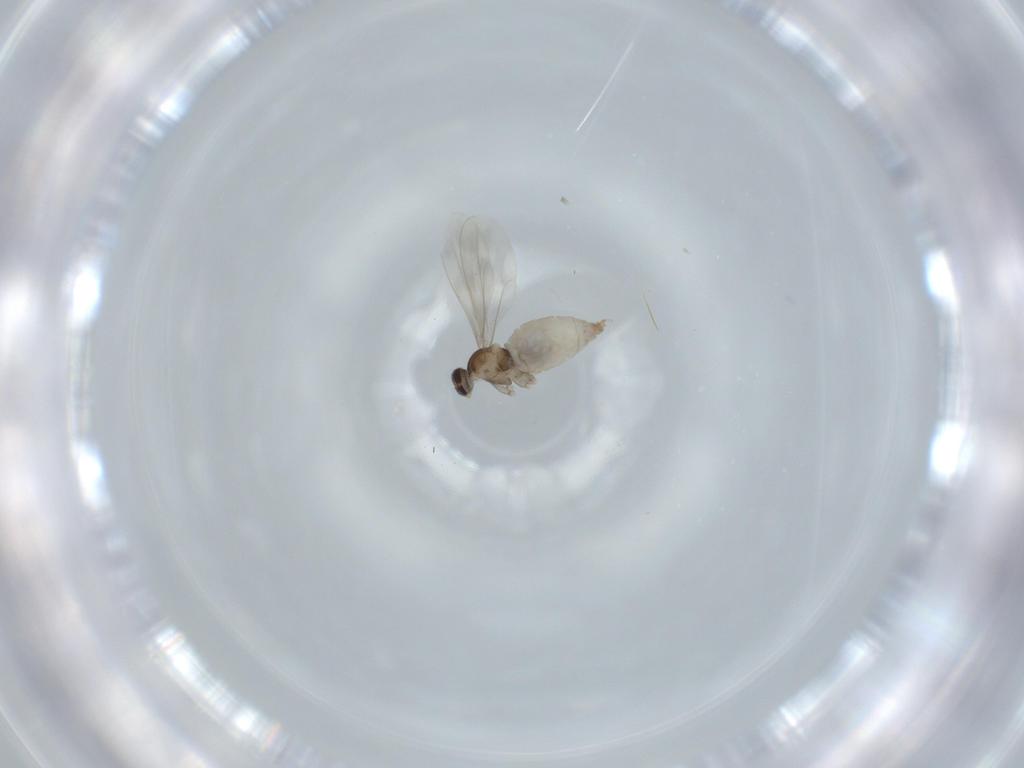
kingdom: Animalia
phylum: Arthropoda
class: Insecta
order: Diptera
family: Cecidomyiidae
